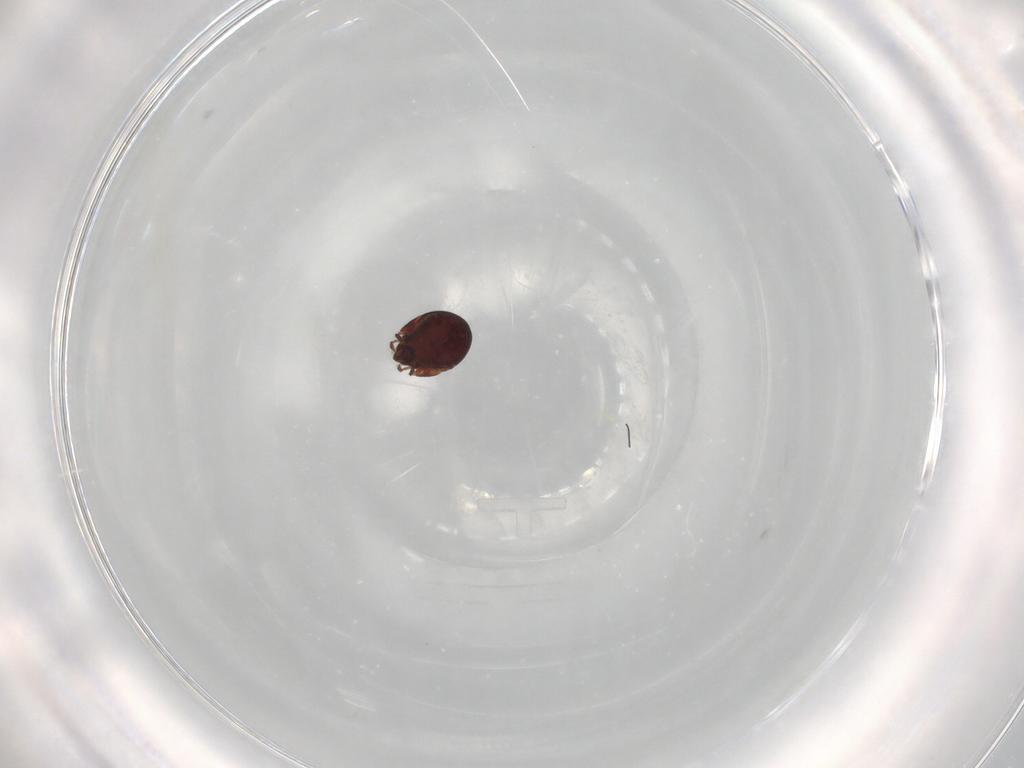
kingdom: Animalia
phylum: Arthropoda
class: Arachnida
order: Sarcoptiformes
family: Humerobatidae
